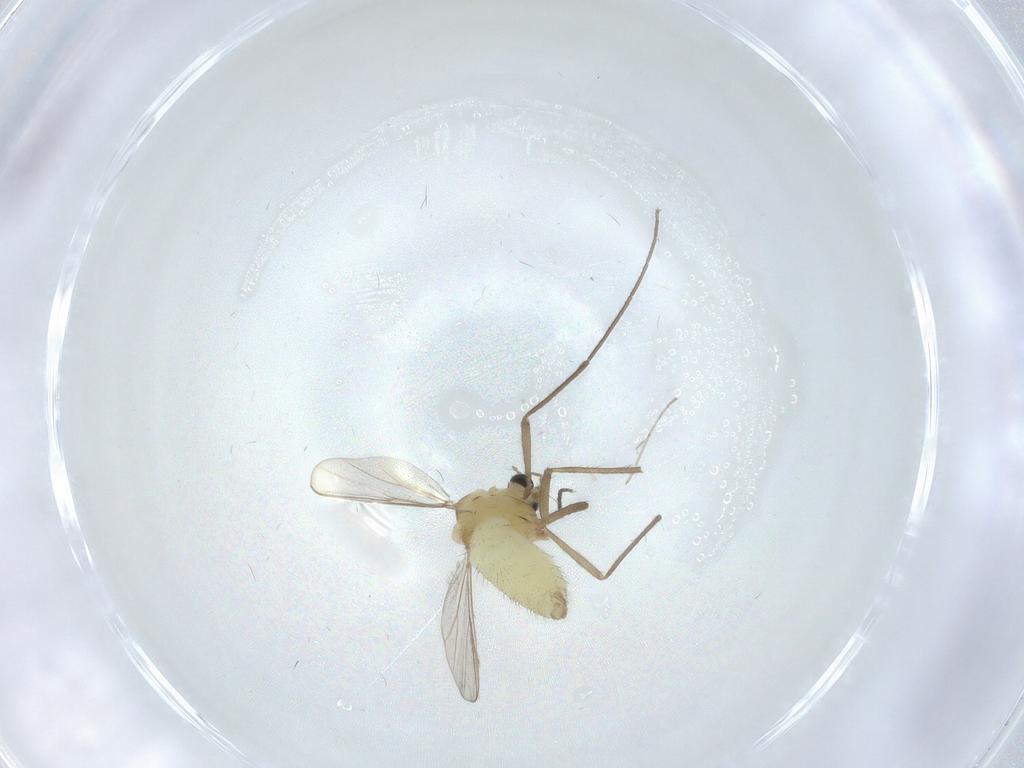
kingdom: Animalia
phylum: Arthropoda
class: Insecta
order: Diptera
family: Chironomidae
